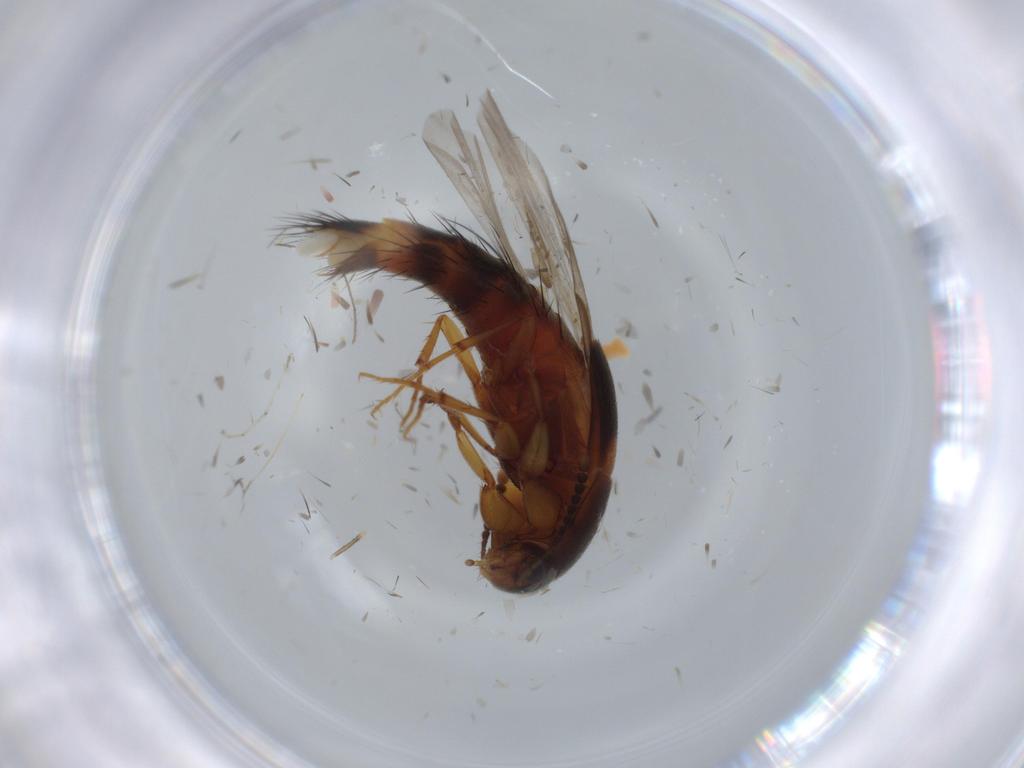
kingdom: Animalia
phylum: Arthropoda
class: Insecta
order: Coleoptera
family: Staphylinidae
